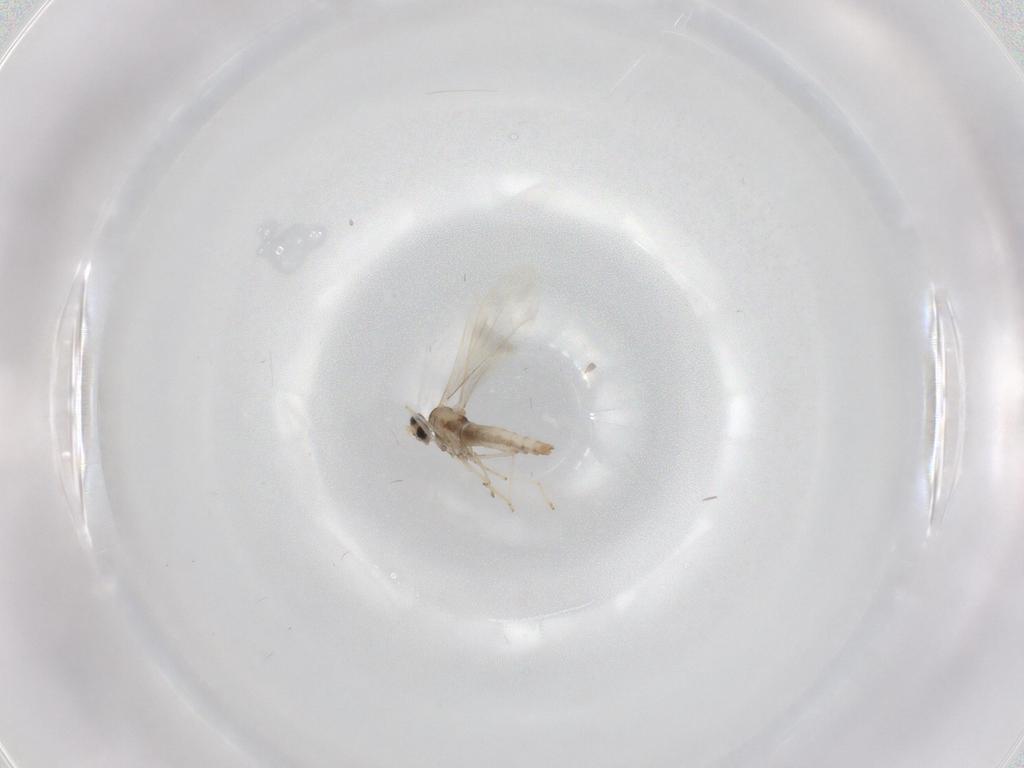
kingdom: Animalia
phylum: Arthropoda
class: Insecta
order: Diptera
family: Cecidomyiidae
